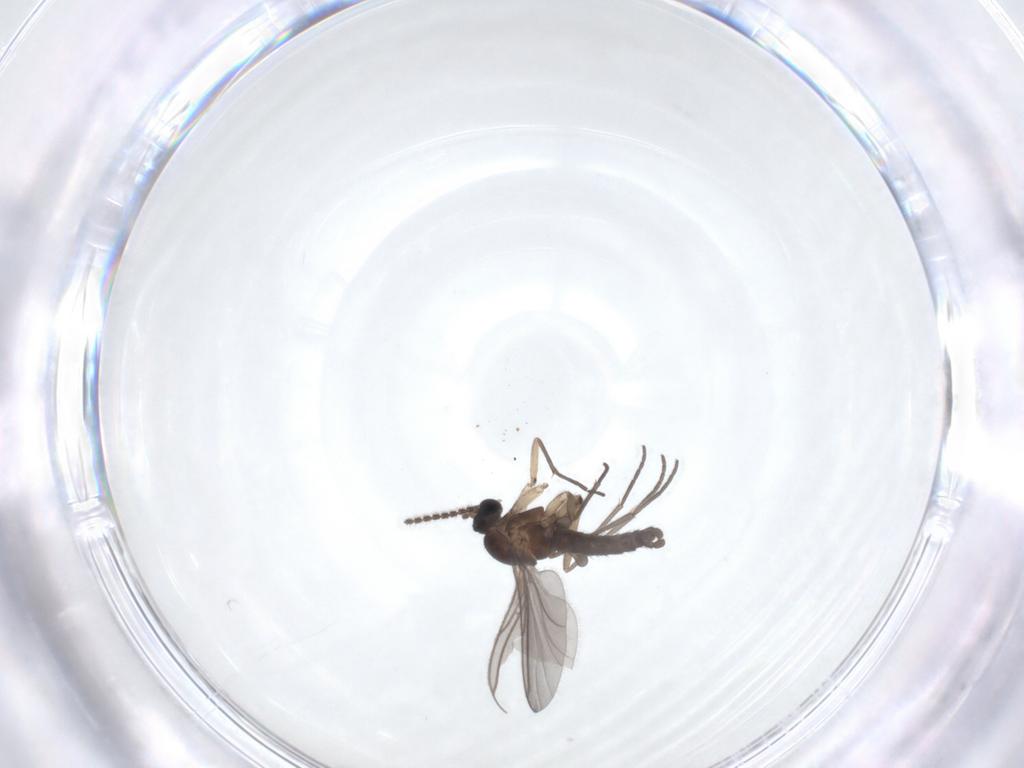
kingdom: Animalia
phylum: Arthropoda
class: Insecta
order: Diptera
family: Sciaridae
